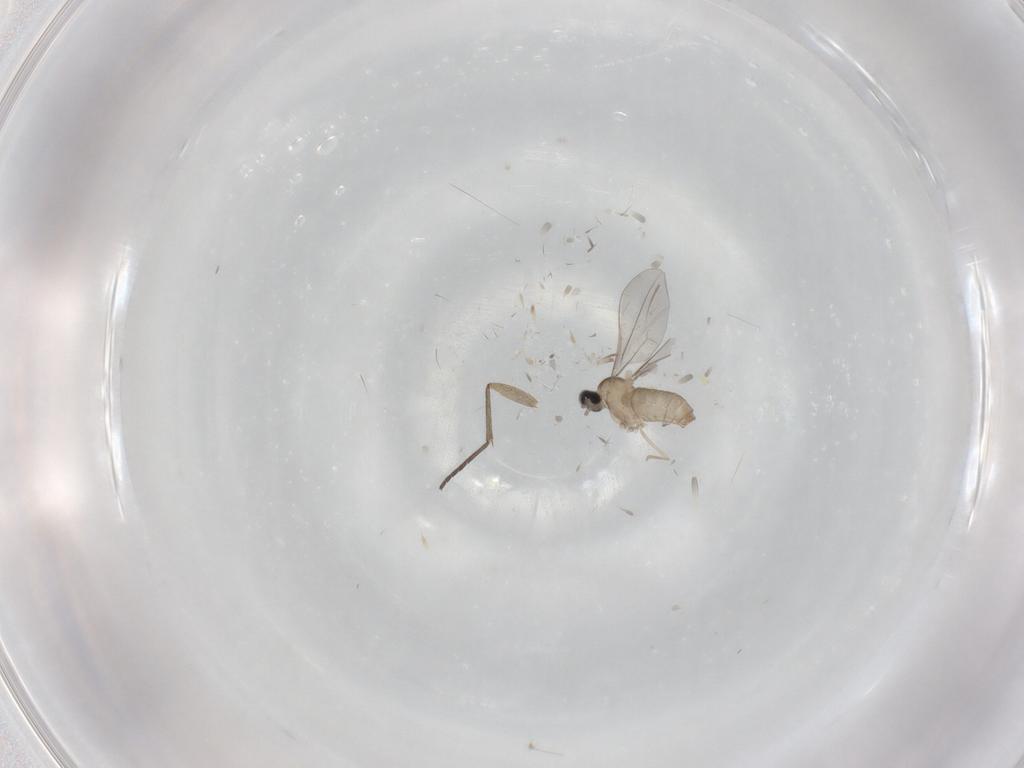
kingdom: Animalia
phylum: Arthropoda
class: Insecta
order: Diptera
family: Cecidomyiidae
